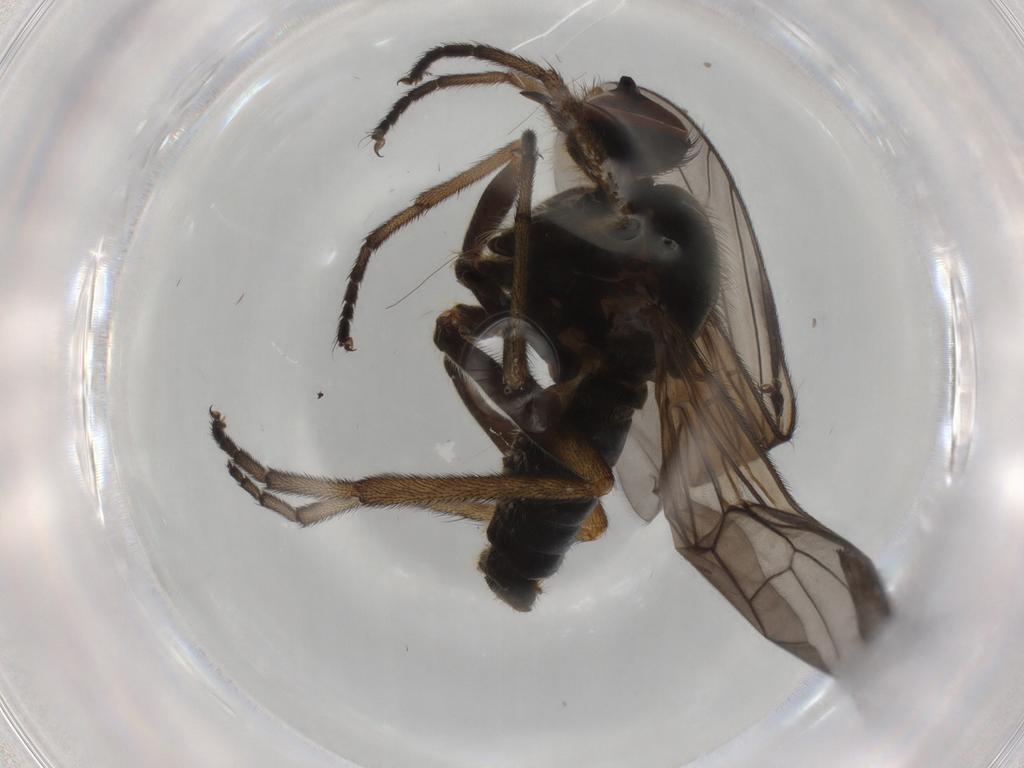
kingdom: Animalia
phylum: Arthropoda
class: Insecta
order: Diptera
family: Empididae
